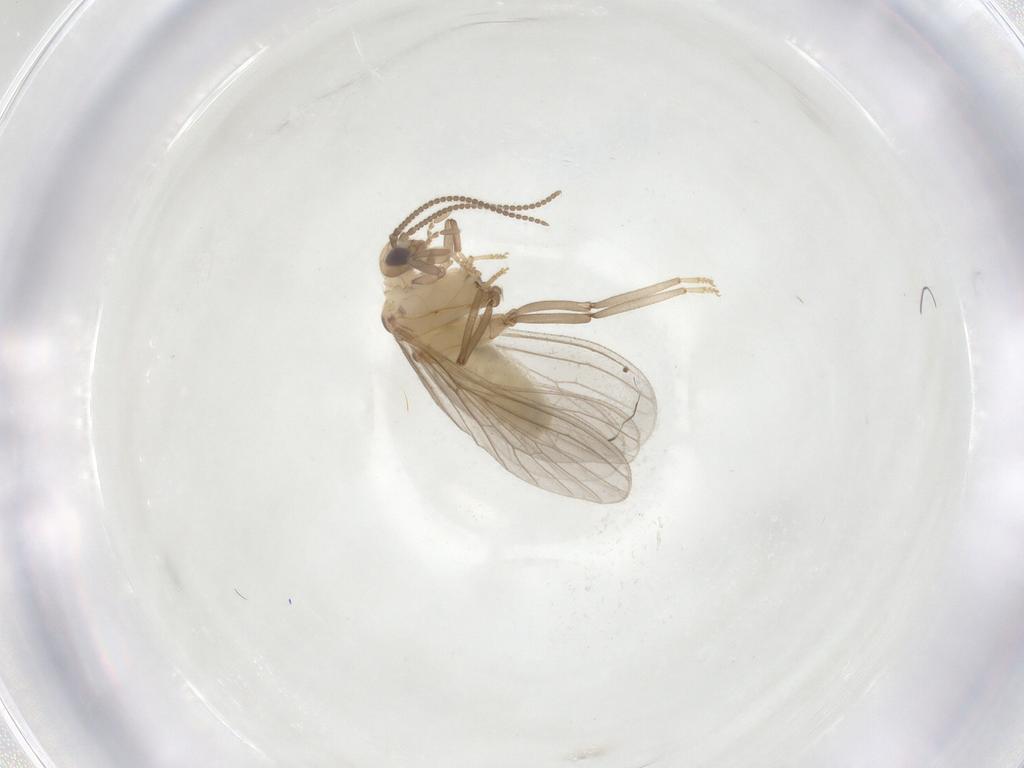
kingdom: Animalia
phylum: Arthropoda
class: Insecta
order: Neuroptera
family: Coniopterygidae
